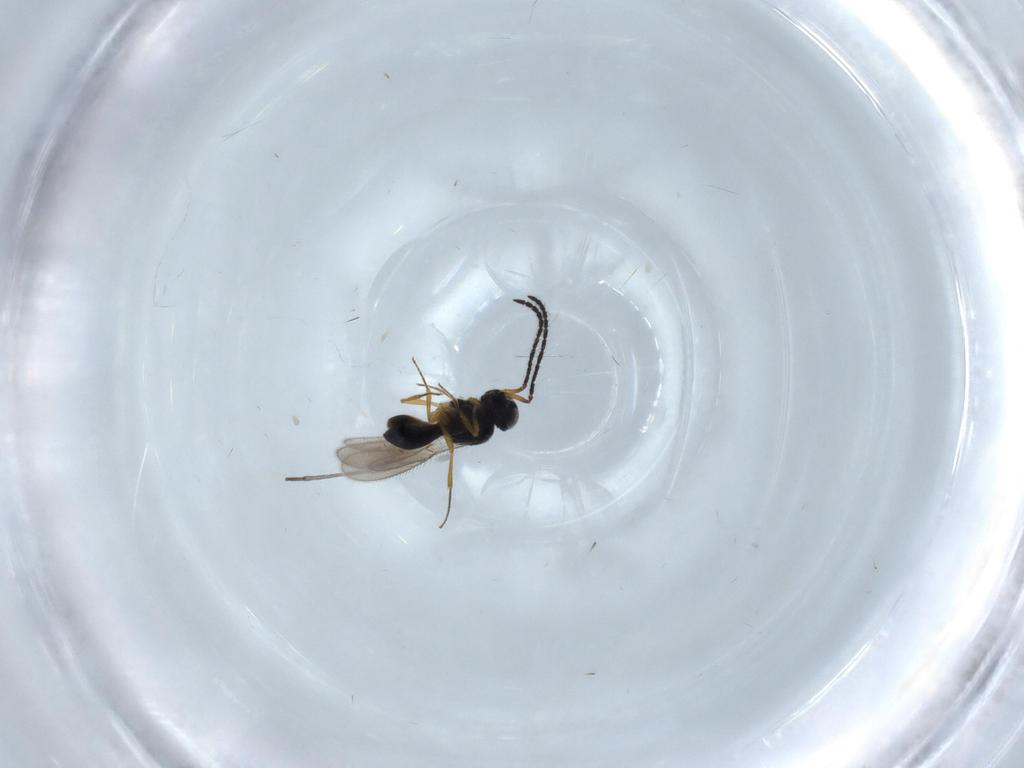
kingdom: Animalia
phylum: Arthropoda
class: Insecta
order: Hymenoptera
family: Scelionidae
